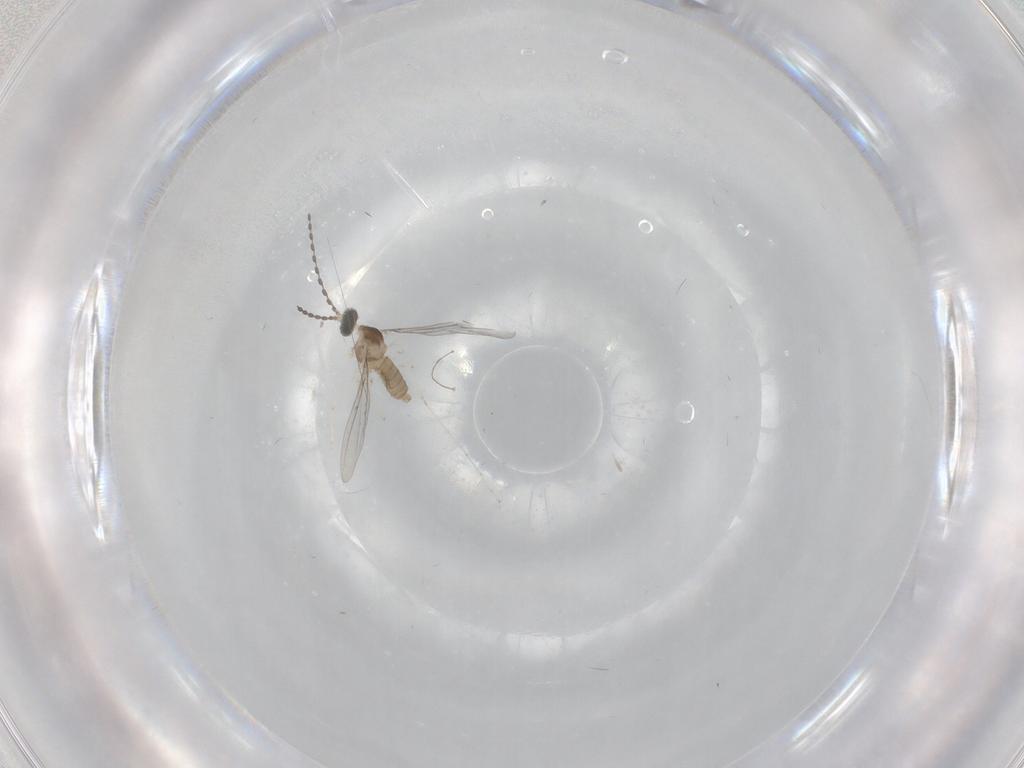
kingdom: Animalia
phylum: Arthropoda
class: Insecta
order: Diptera
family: Cecidomyiidae
